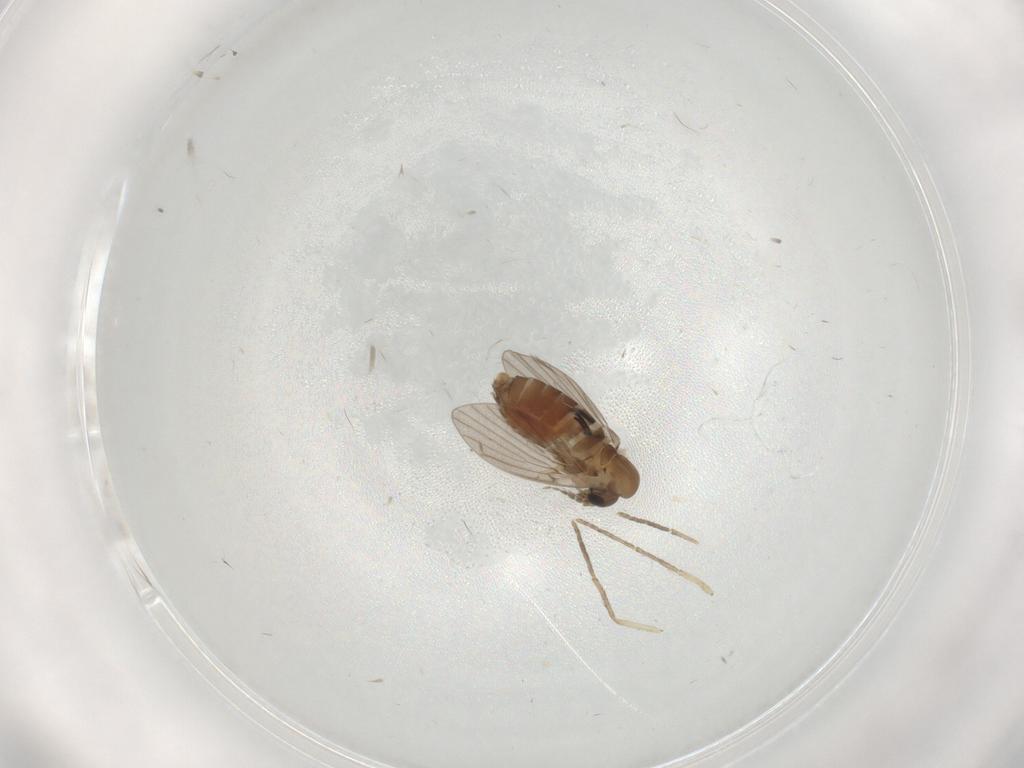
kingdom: Animalia
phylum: Arthropoda
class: Insecta
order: Diptera
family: Phoridae
